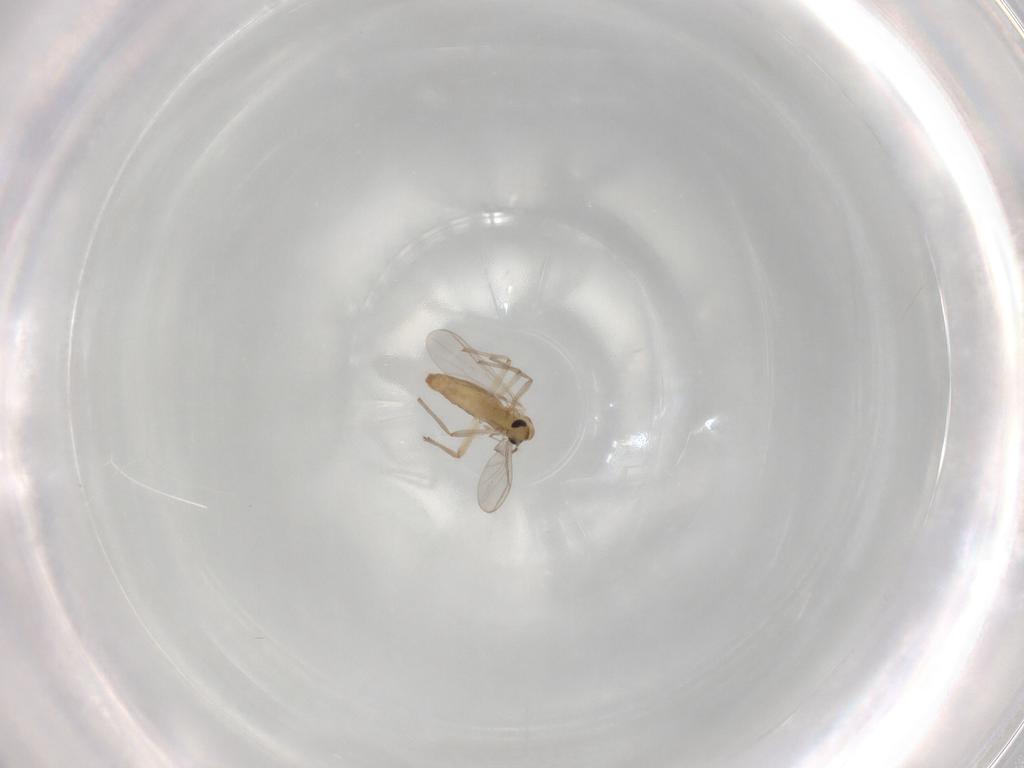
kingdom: Animalia
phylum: Arthropoda
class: Insecta
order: Diptera
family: Chironomidae
